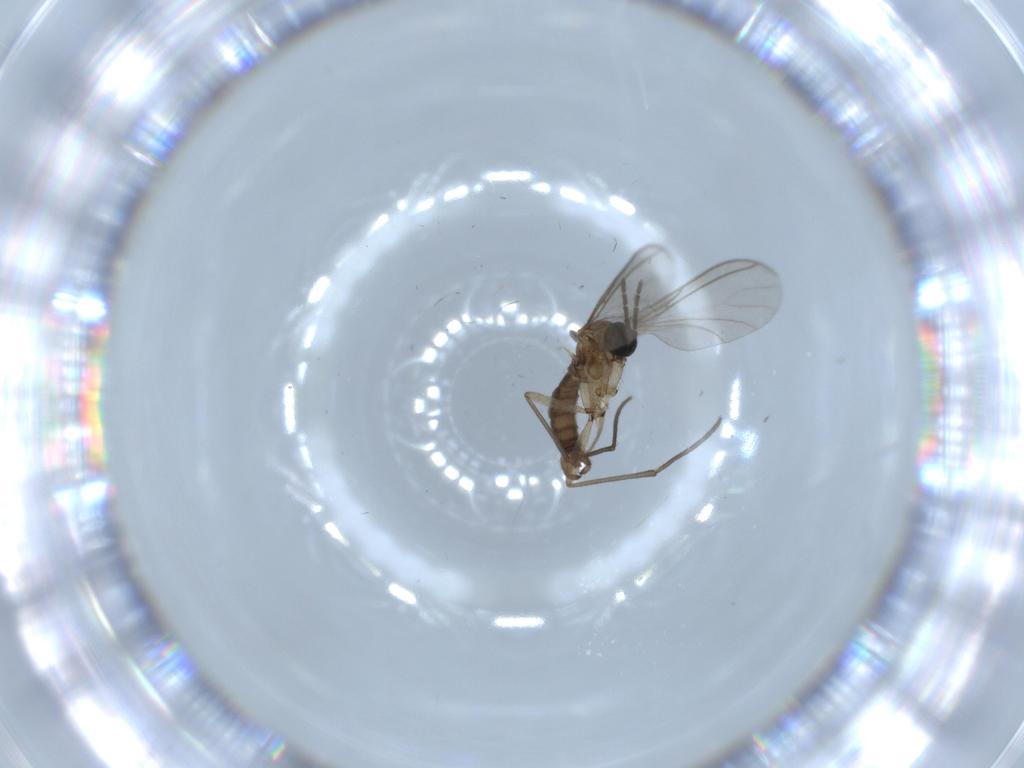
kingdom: Animalia
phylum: Arthropoda
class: Insecta
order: Diptera
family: Sciaridae
